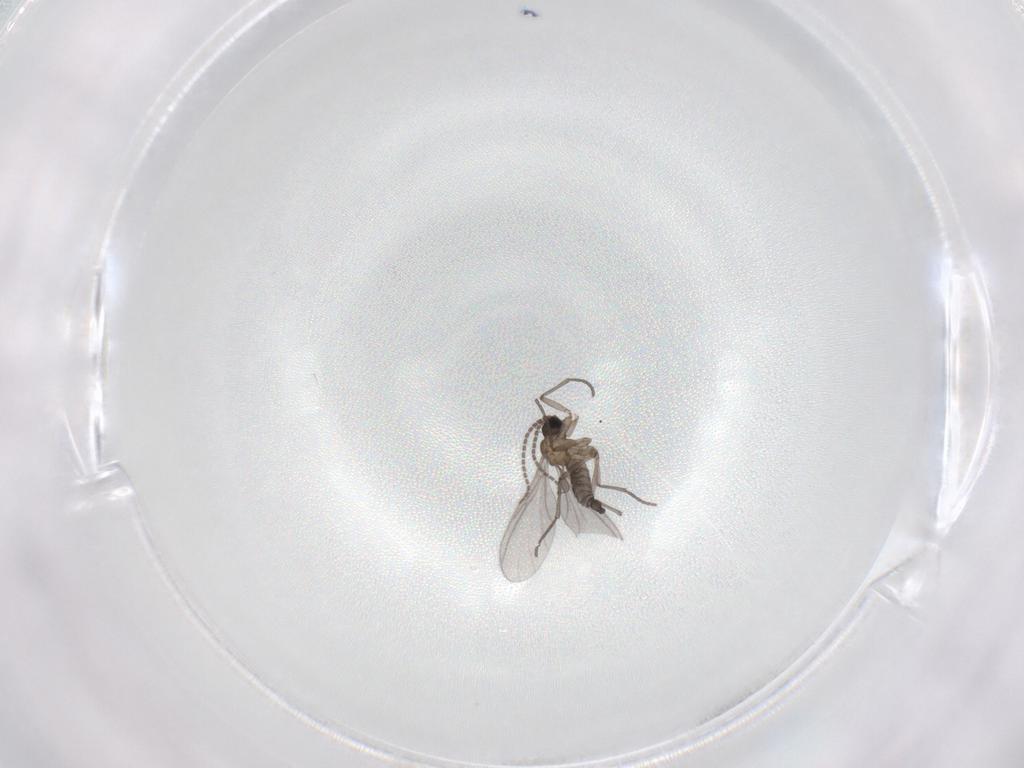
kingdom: Animalia
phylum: Arthropoda
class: Insecta
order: Diptera
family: Sciaridae
